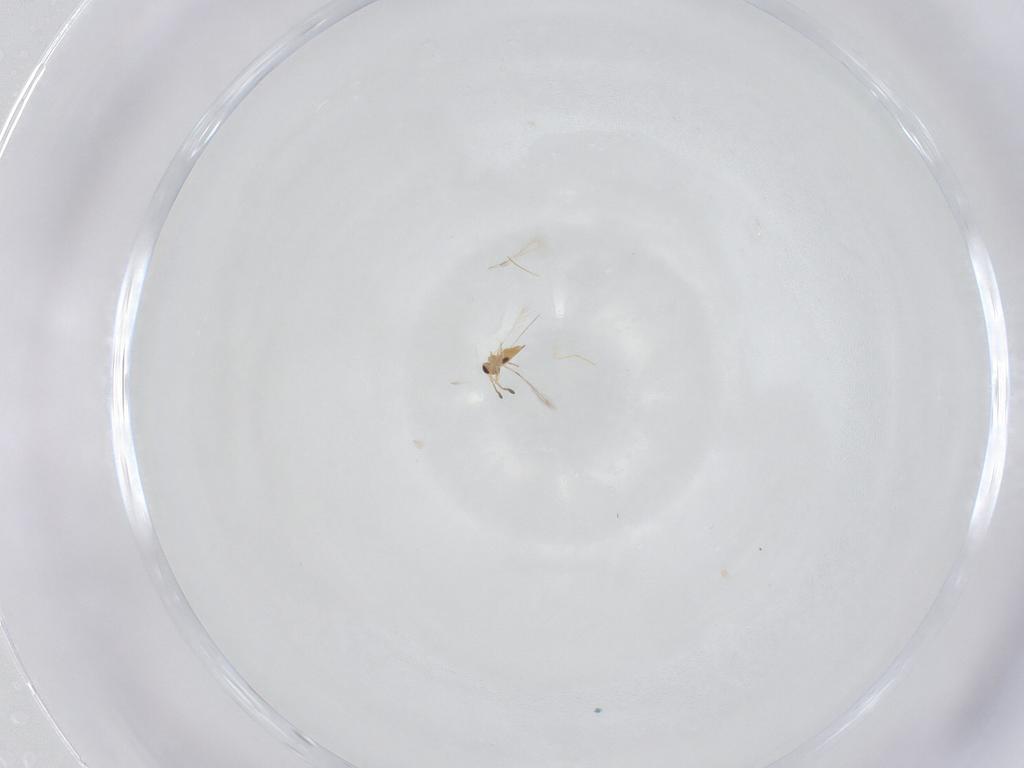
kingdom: Animalia
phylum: Arthropoda
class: Insecta
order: Hymenoptera
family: Mymaridae
